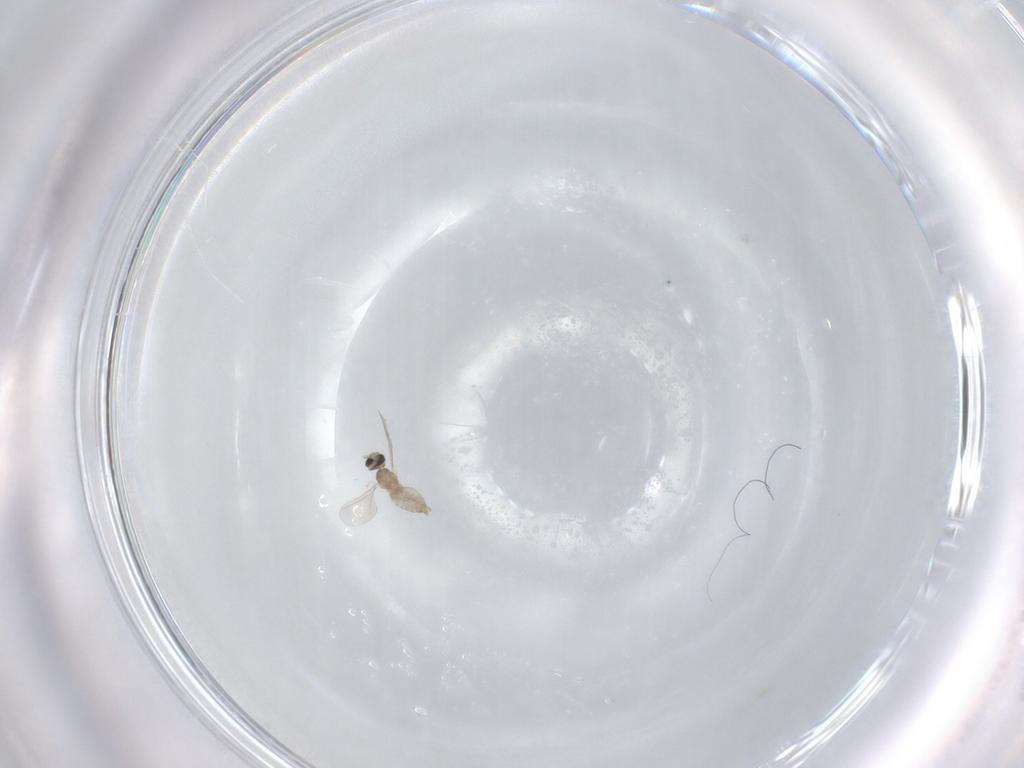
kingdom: Animalia
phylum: Arthropoda
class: Insecta
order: Diptera
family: Cecidomyiidae
